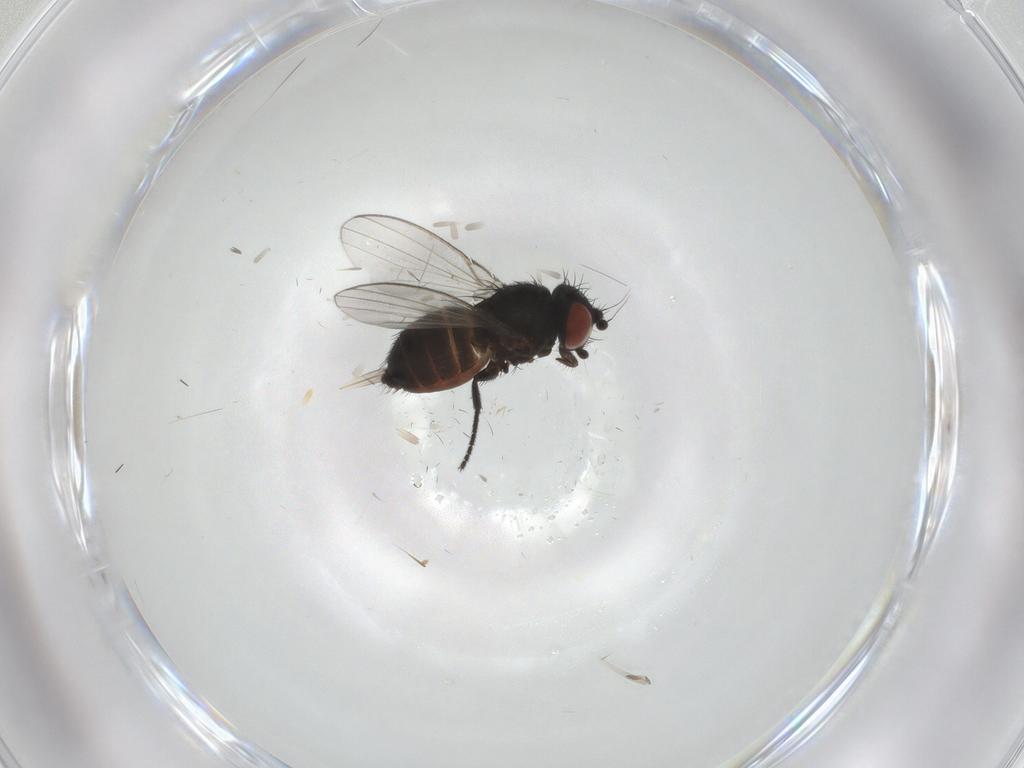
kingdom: Animalia
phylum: Arthropoda
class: Insecta
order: Diptera
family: Milichiidae
